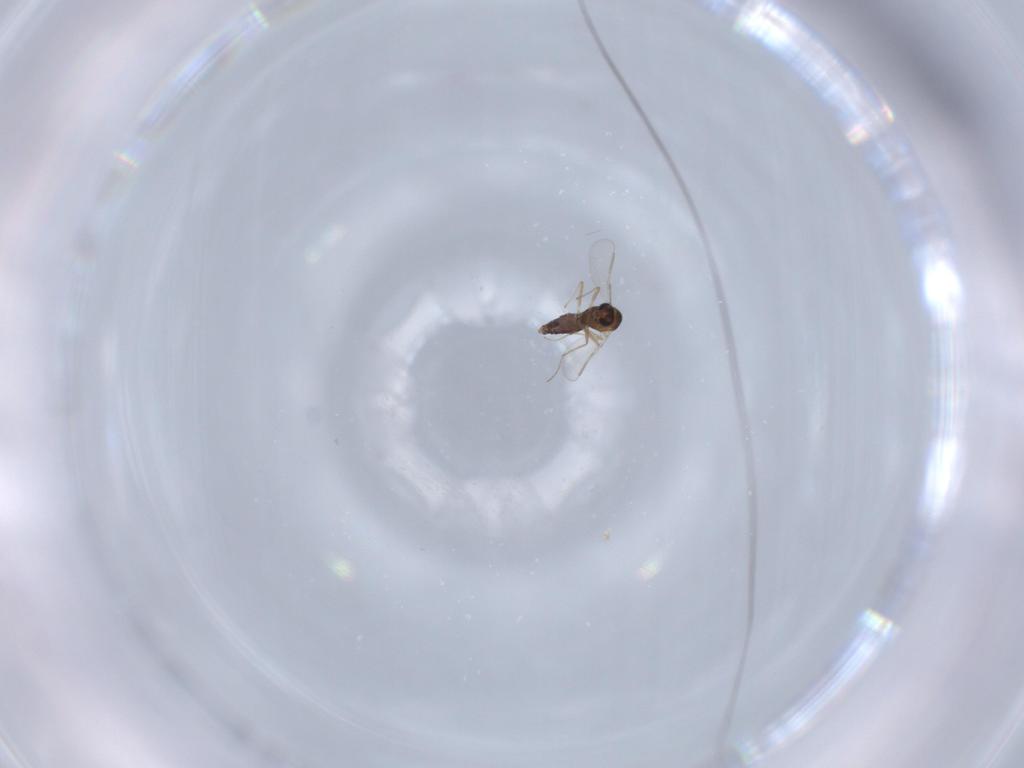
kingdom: Animalia
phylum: Arthropoda
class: Insecta
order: Diptera
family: Chironomidae
